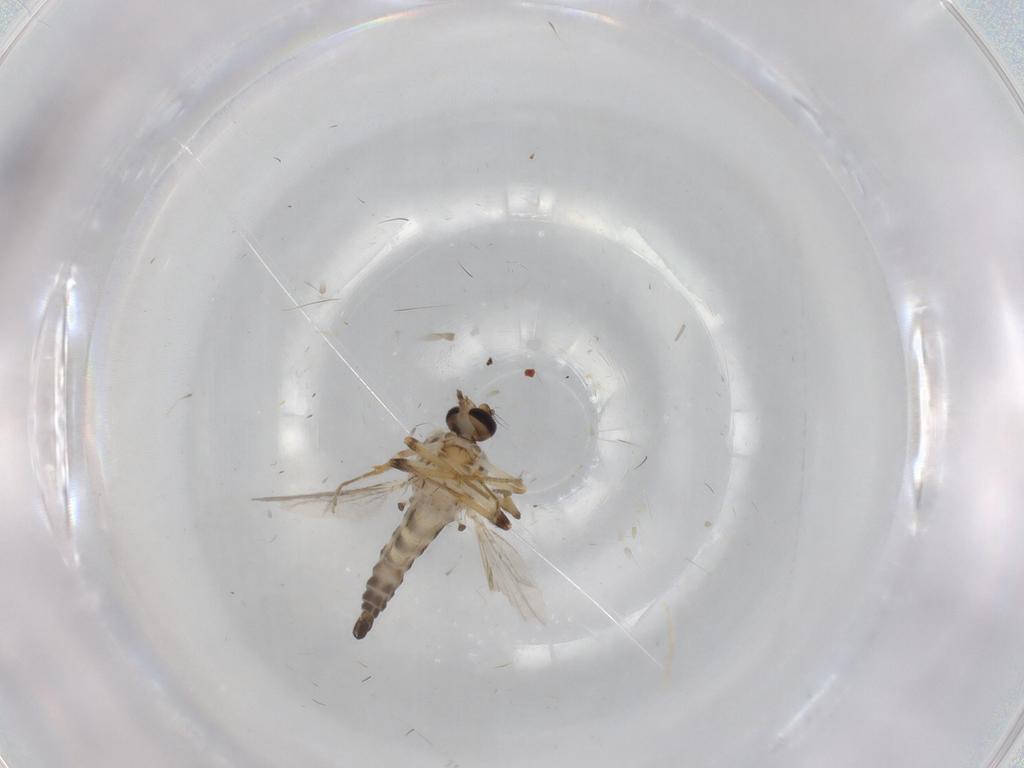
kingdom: Animalia
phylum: Arthropoda
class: Insecta
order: Diptera
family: Ceratopogonidae
